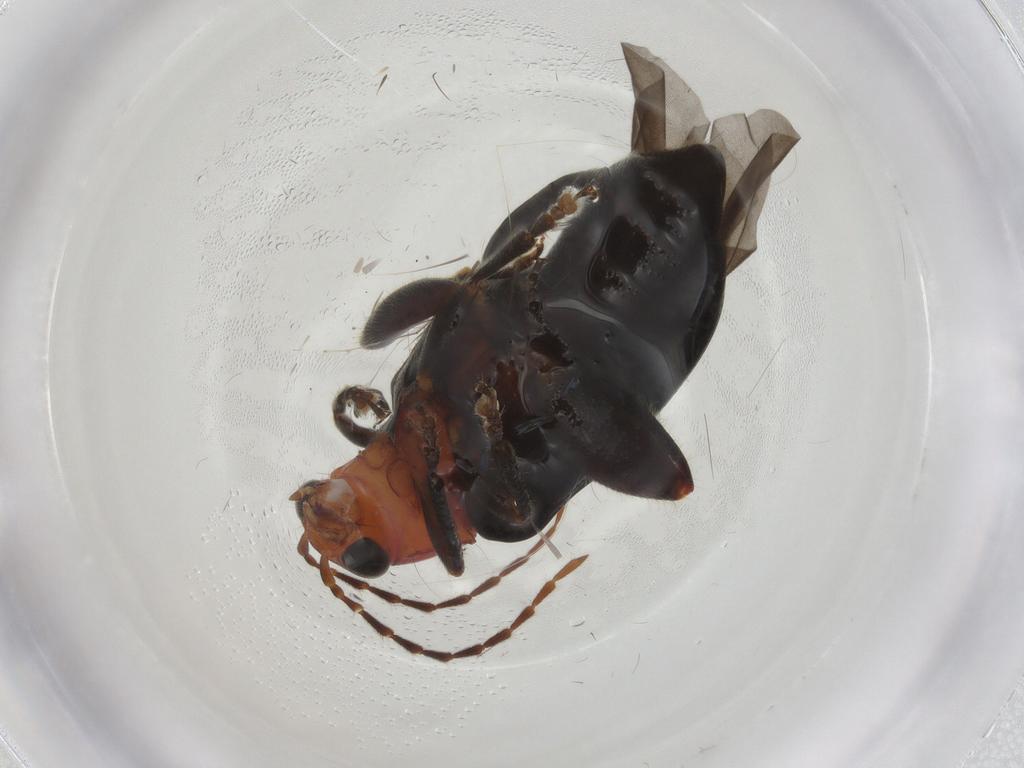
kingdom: Animalia
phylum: Arthropoda
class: Insecta
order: Coleoptera
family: Chrysomelidae
